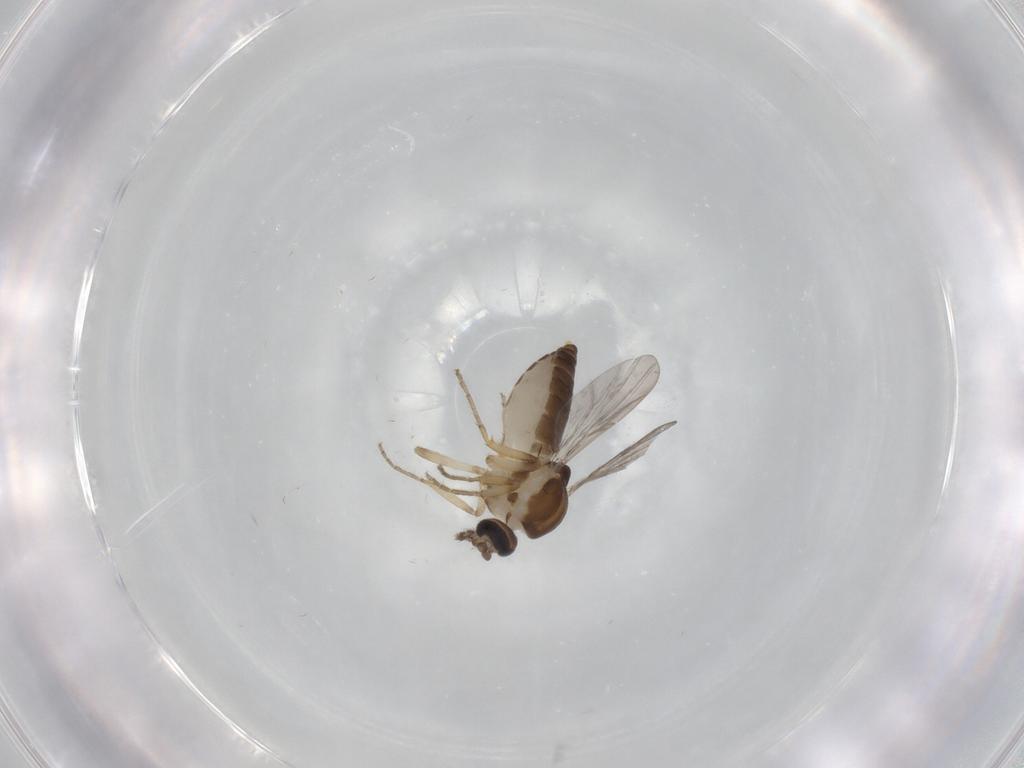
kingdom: Animalia
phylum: Arthropoda
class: Insecta
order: Diptera
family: Ceratopogonidae
